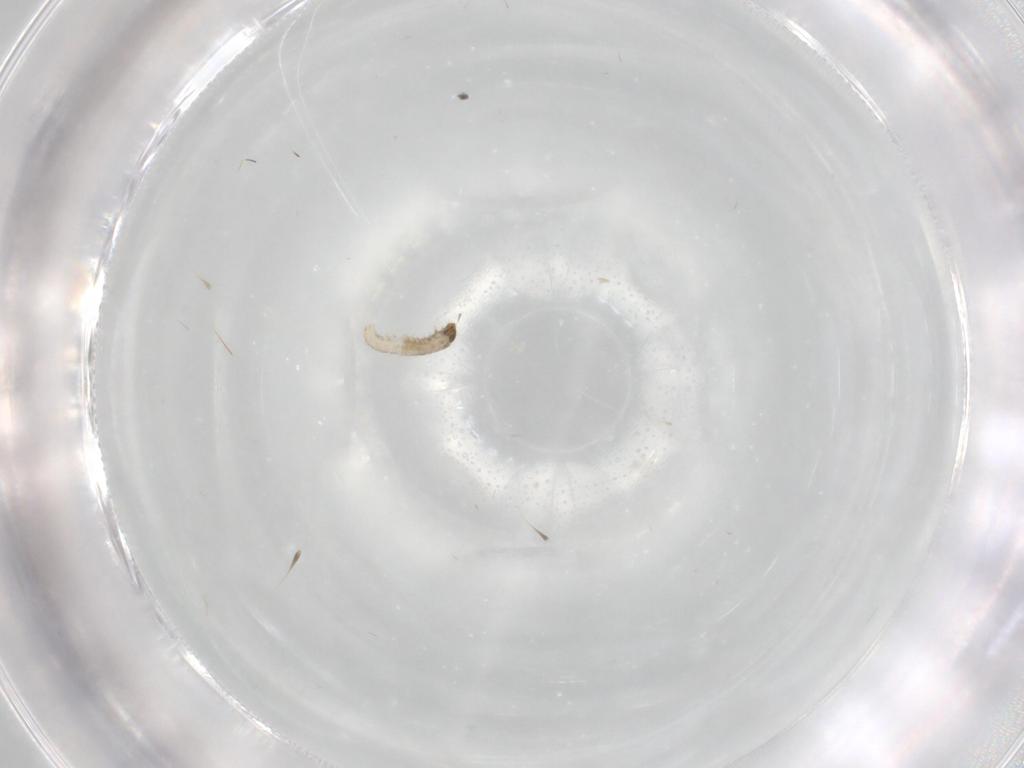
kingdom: Animalia
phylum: Arthropoda
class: Insecta
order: Lepidoptera
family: Tineidae
